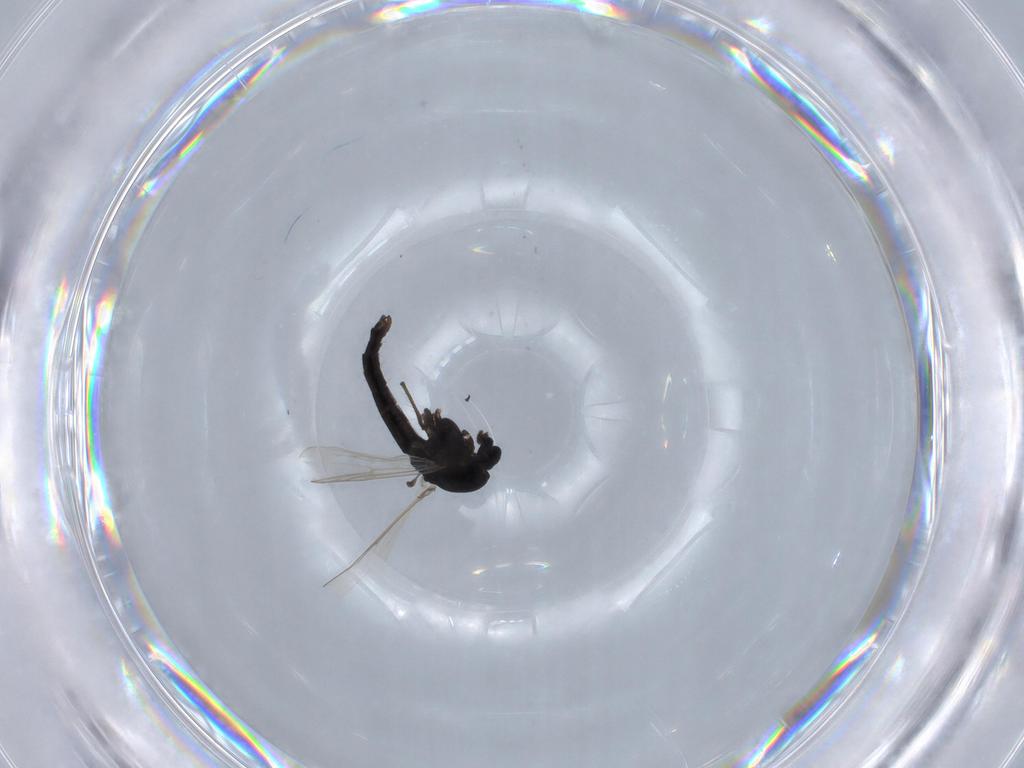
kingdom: Animalia
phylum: Arthropoda
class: Insecta
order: Diptera
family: Chironomidae
